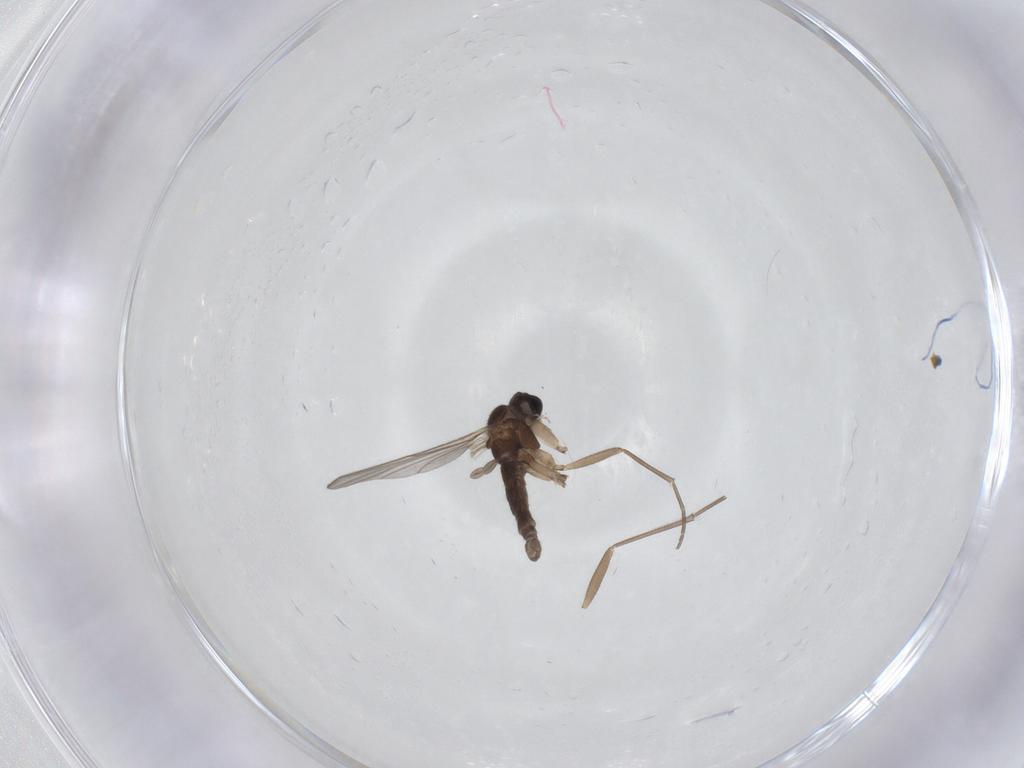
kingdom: Animalia
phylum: Arthropoda
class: Insecta
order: Diptera
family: Sciaridae
